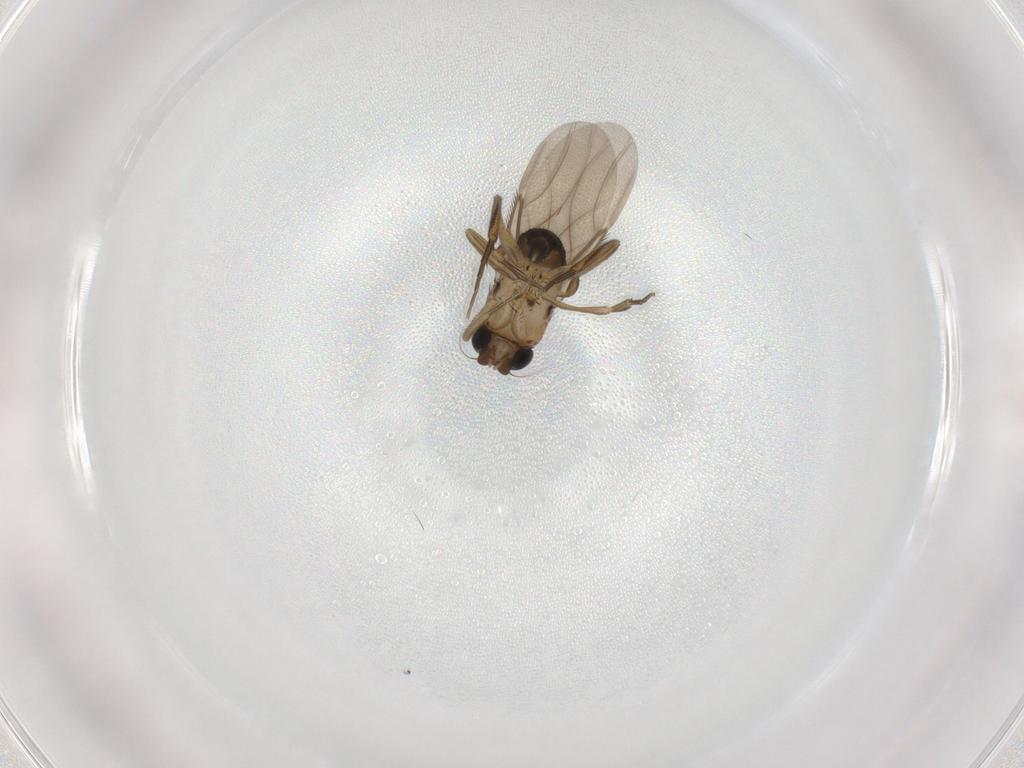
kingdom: Animalia
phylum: Arthropoda
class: Insecta
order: Diptera
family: Phoridae
